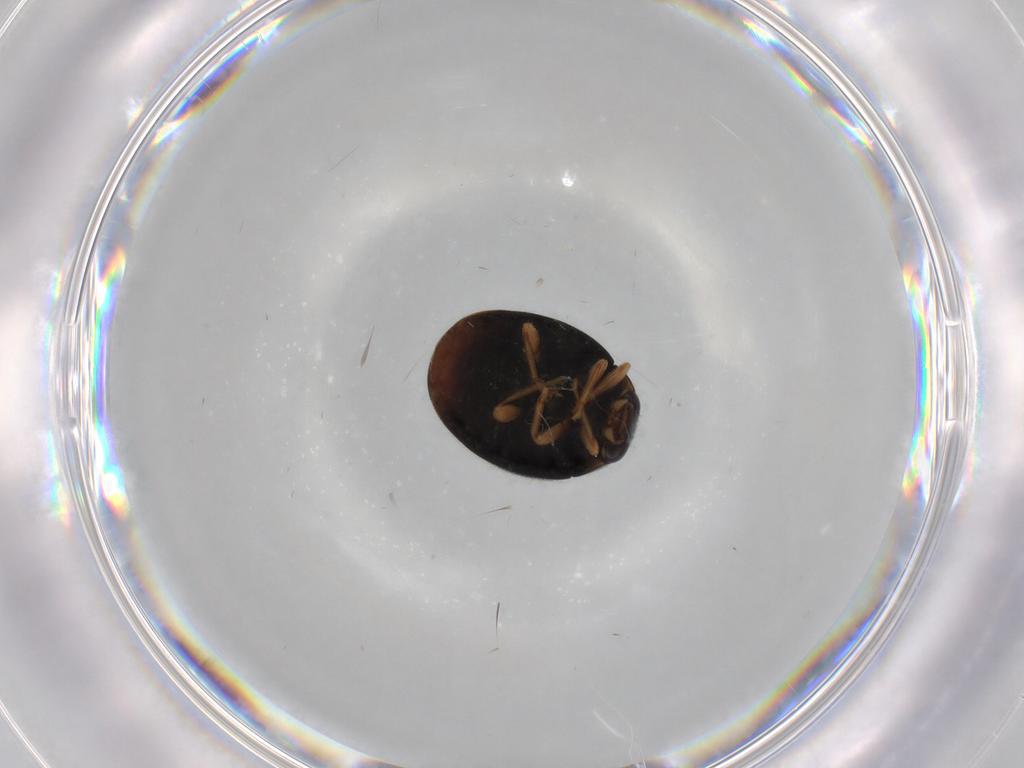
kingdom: Animalia
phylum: Arthropoda
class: Insecta
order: Coleoptera
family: Coccinellidae
